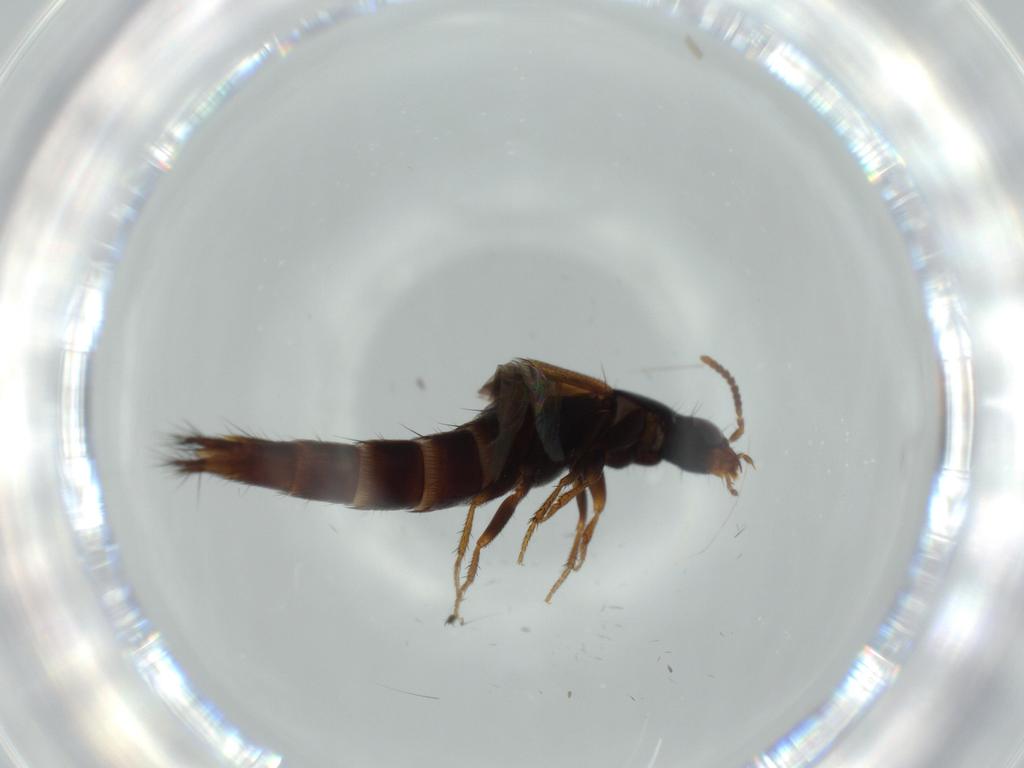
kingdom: Animalia
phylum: Arthropoda
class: Insecta
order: Coleoptera
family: Staphylinidae
